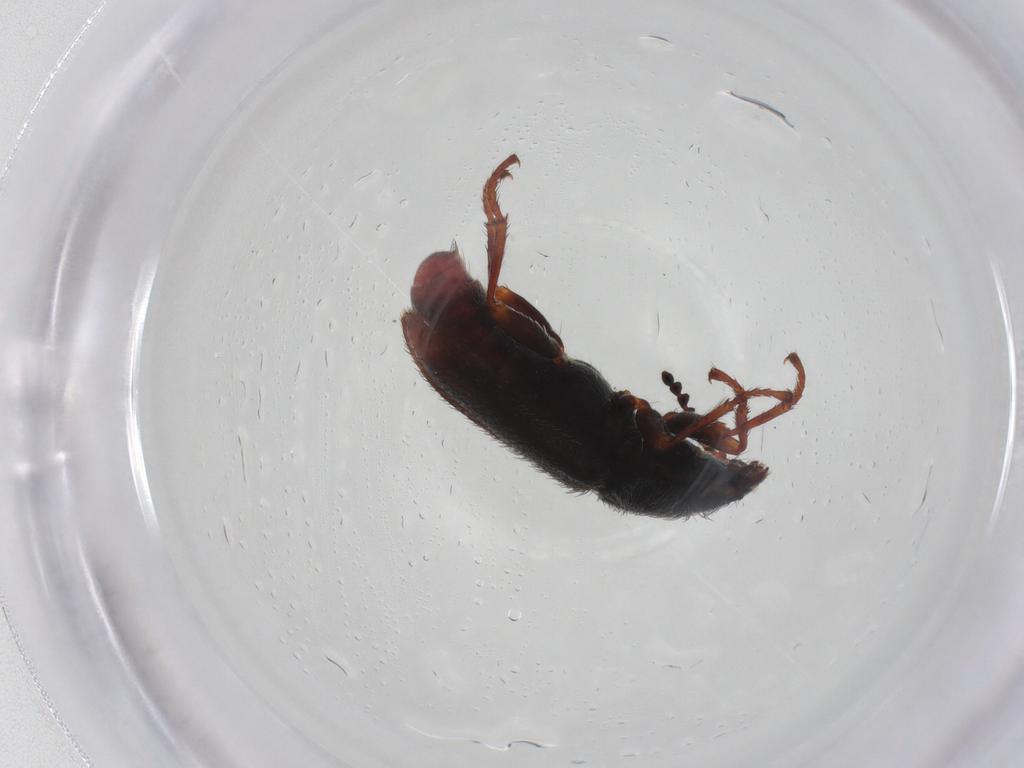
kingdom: Animalia
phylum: Arthropoda
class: Insecta
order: Coleoptera
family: Melyridae
